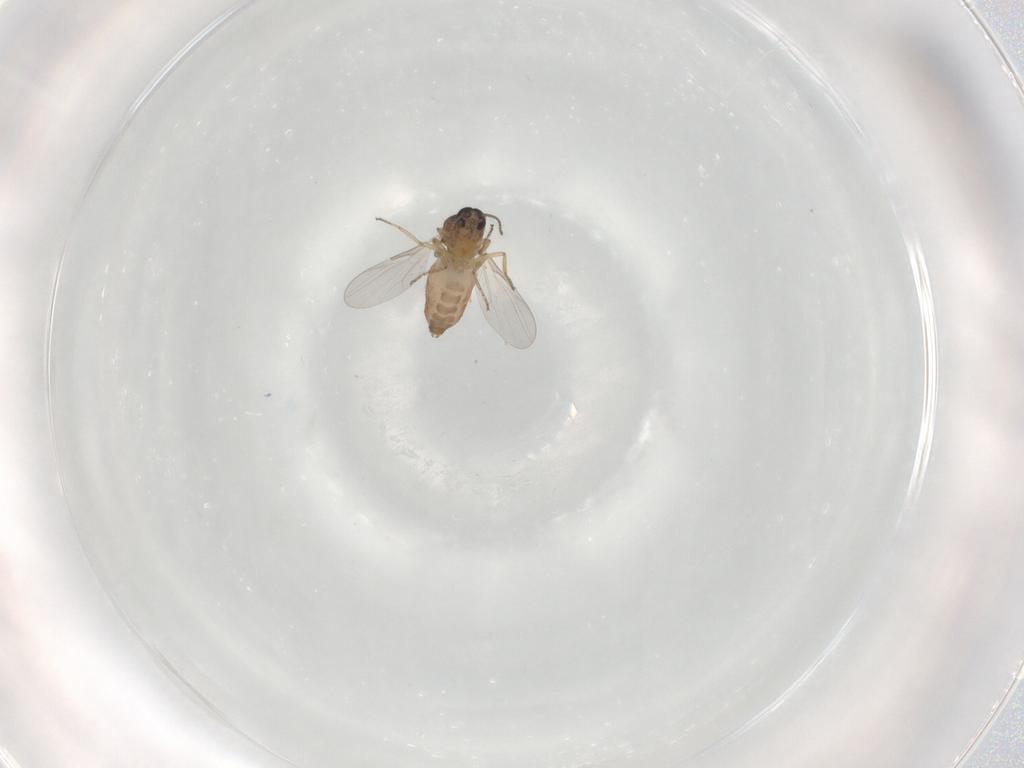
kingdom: Animalia
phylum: Arthropoda
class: Insecta
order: Diptera
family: Ceratopogonidae
